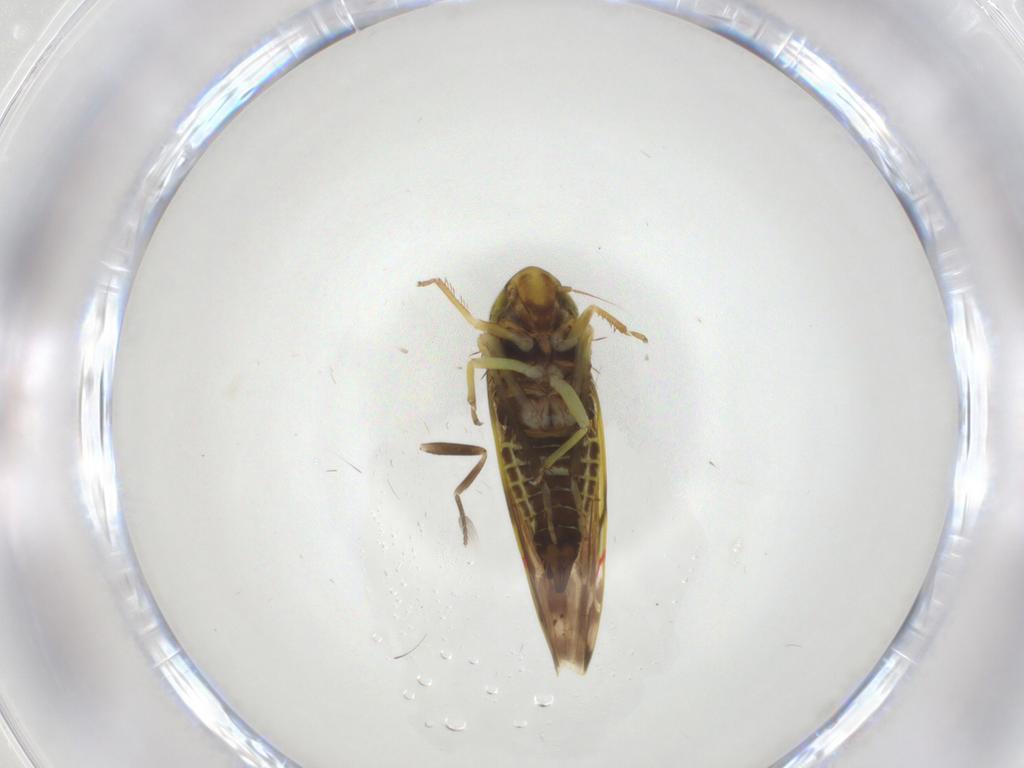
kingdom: Animalia
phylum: Arthropoda
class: Insecta
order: Hemiptera
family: Cicadellidae
